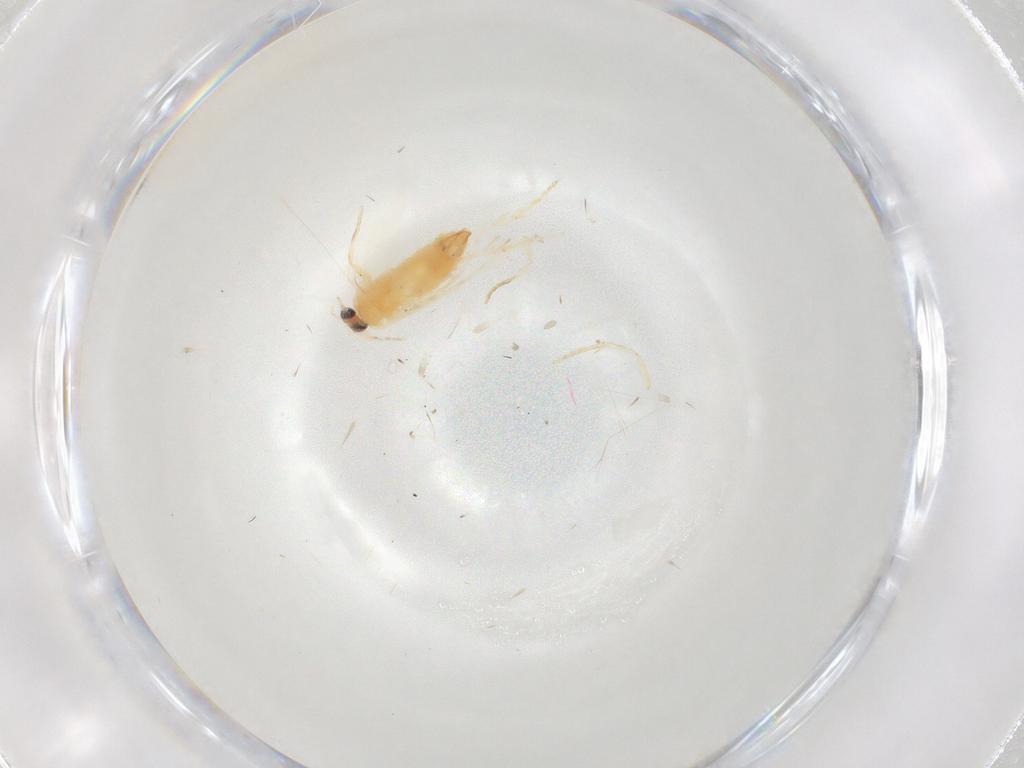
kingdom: Animalia
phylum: Arthropoda
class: Insecta
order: Lepidoptera
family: Nepticulidae
